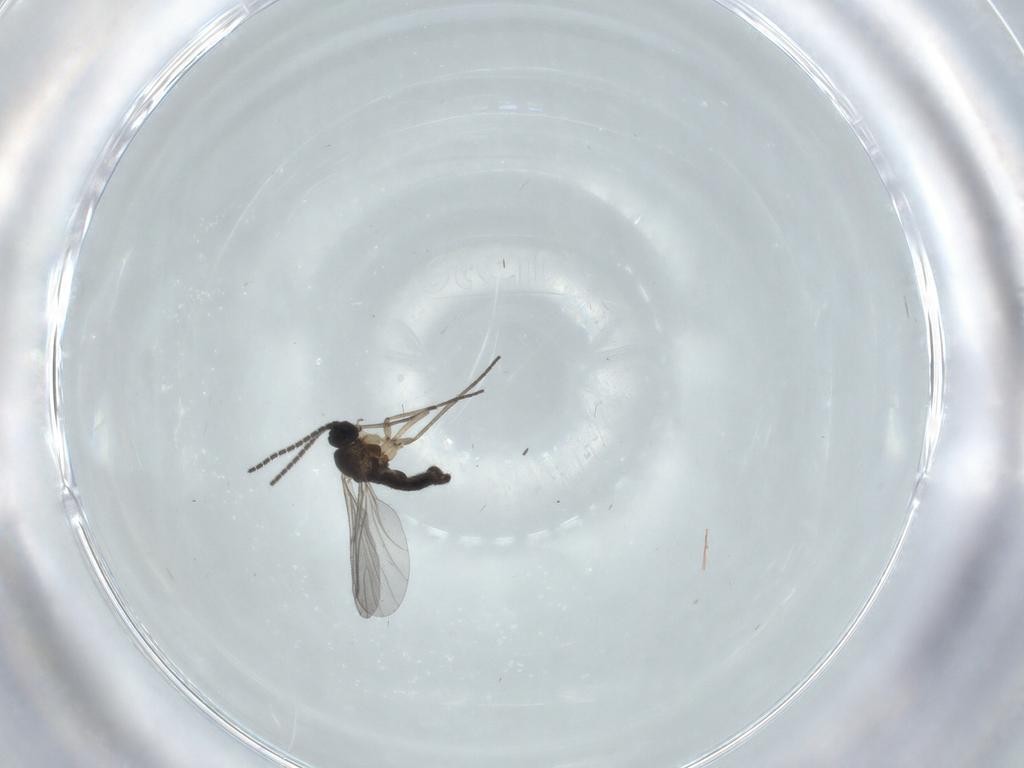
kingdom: Animalia
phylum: Arthropoda
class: Insecta
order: Diptera
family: Sciaridae
